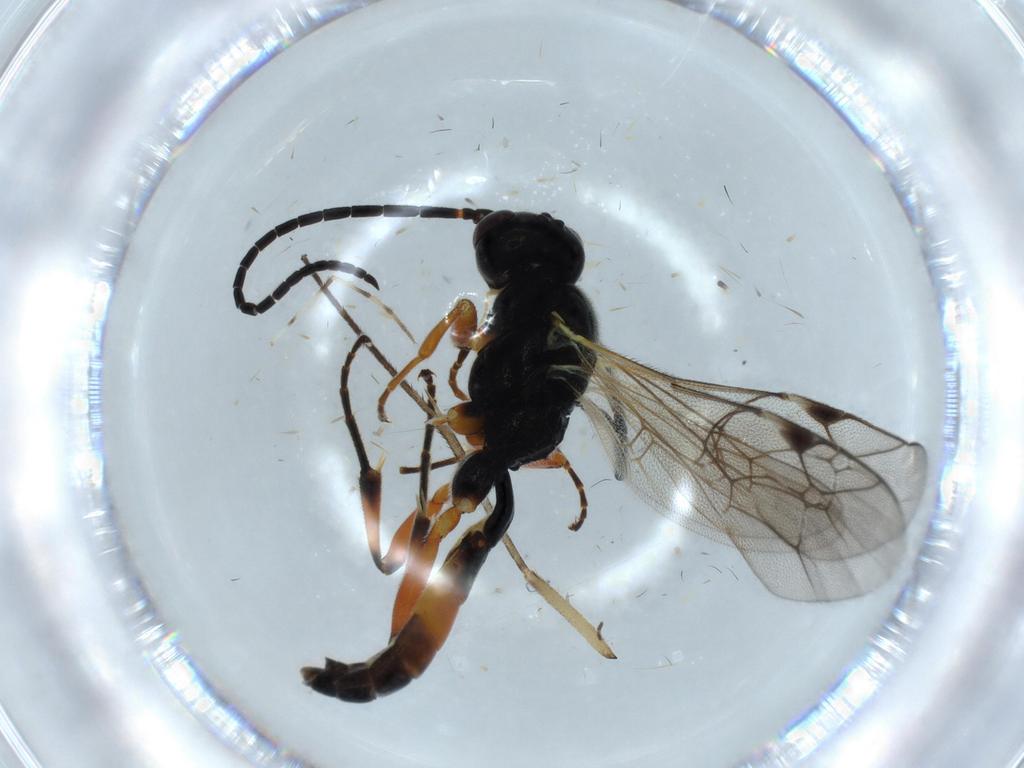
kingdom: Animalia
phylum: Arthropoda
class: Insecta
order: Hymenoptera
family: Ichneumonidae
